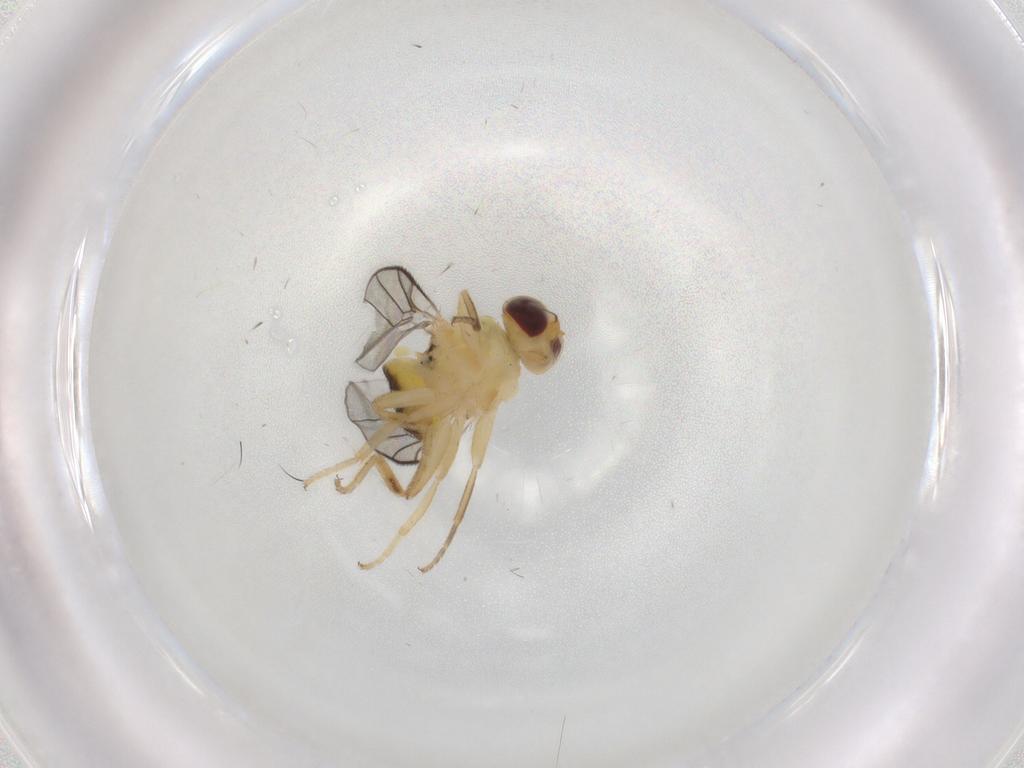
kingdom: Animalia
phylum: Arthropoda
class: Insecta
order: Diptera
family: Chloropidae
